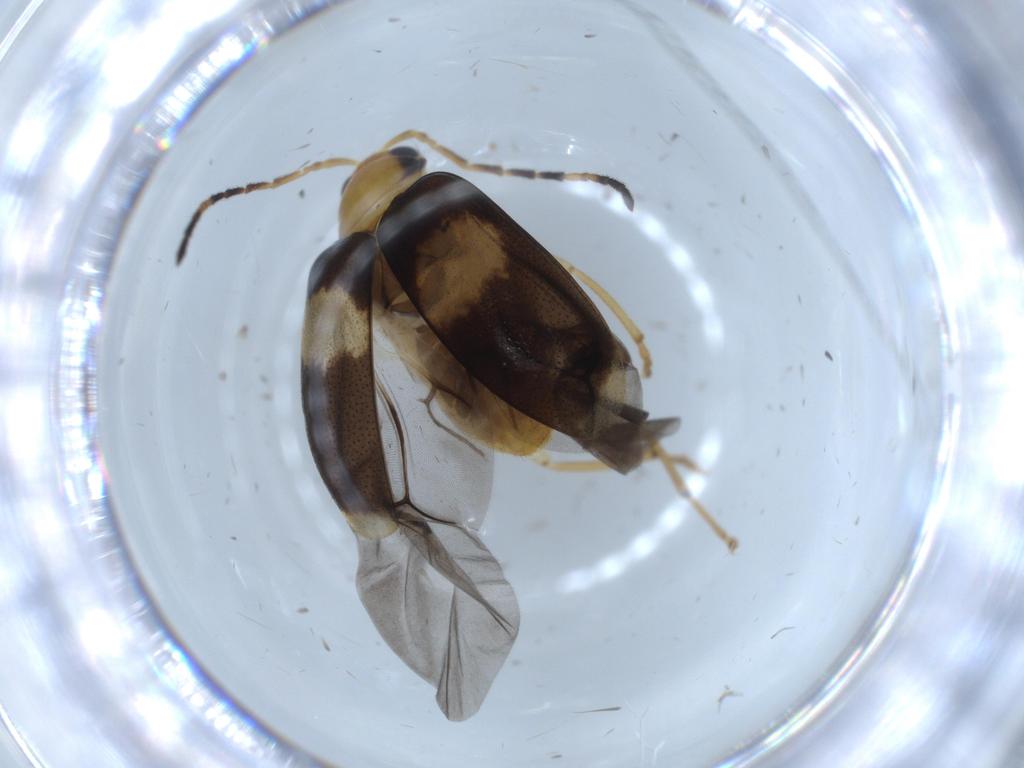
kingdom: Animalia
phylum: Arthropoda
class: Insecta
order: Coleoptera
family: Chrysomelidae
